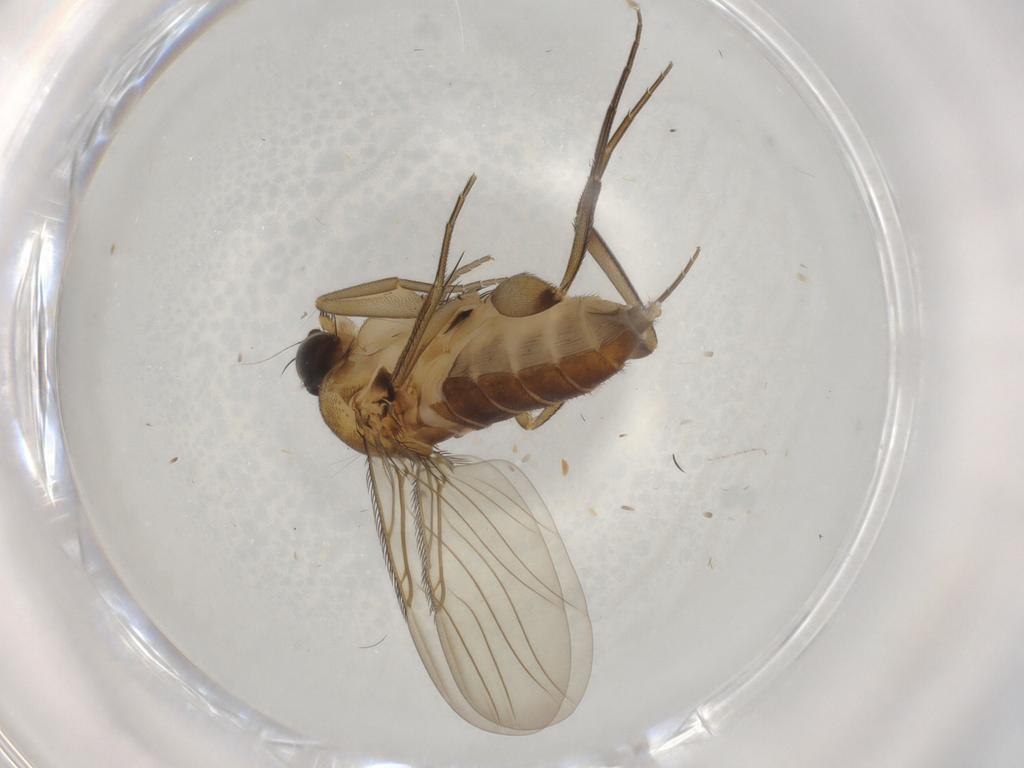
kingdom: Animalia
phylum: Arthropoda
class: Insecta
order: Diptera
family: Phoridae
